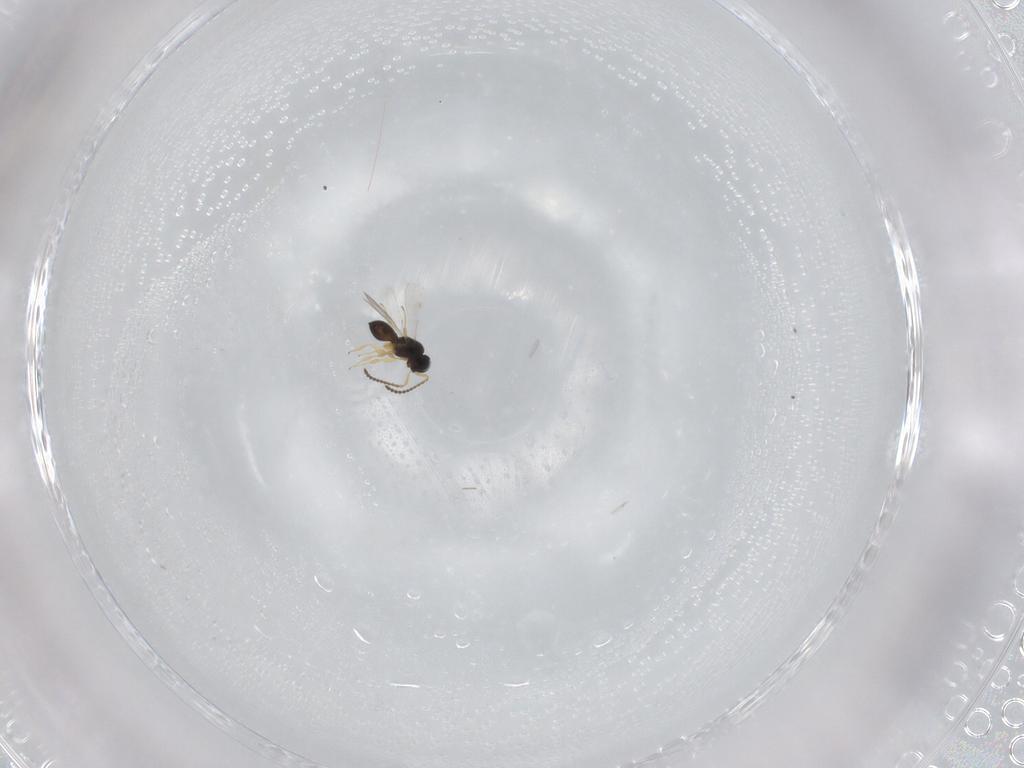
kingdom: Animalia
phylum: Arthropoda
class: Insecta
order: Hymenoptera
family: Scelionidae
